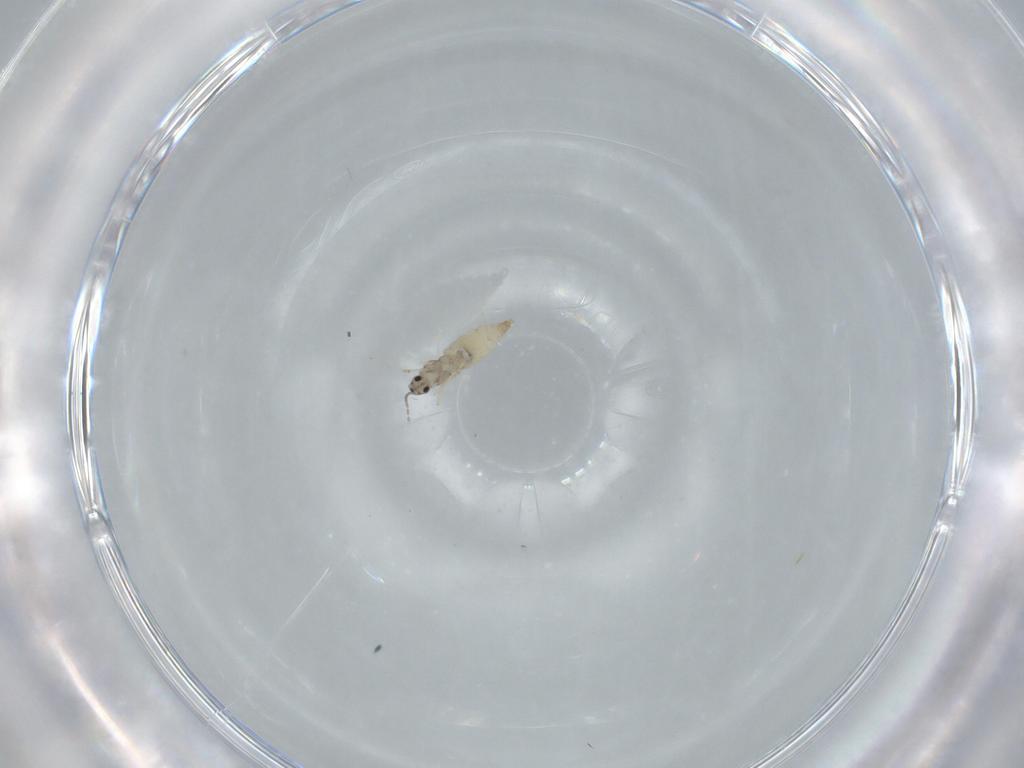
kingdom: Animalia
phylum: Arthropoda
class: Insecta
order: Diptera
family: Cecidomyiidae
